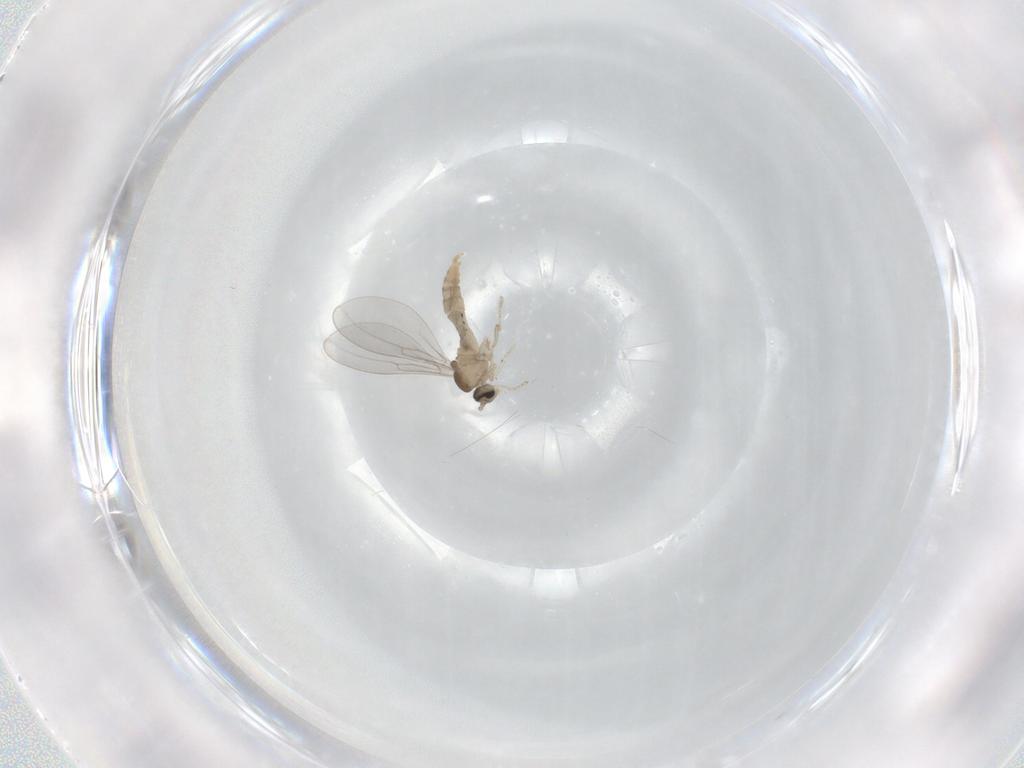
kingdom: Animalia
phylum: Arthropoda
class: Insecta
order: Diptera
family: Cecidomyiidae
